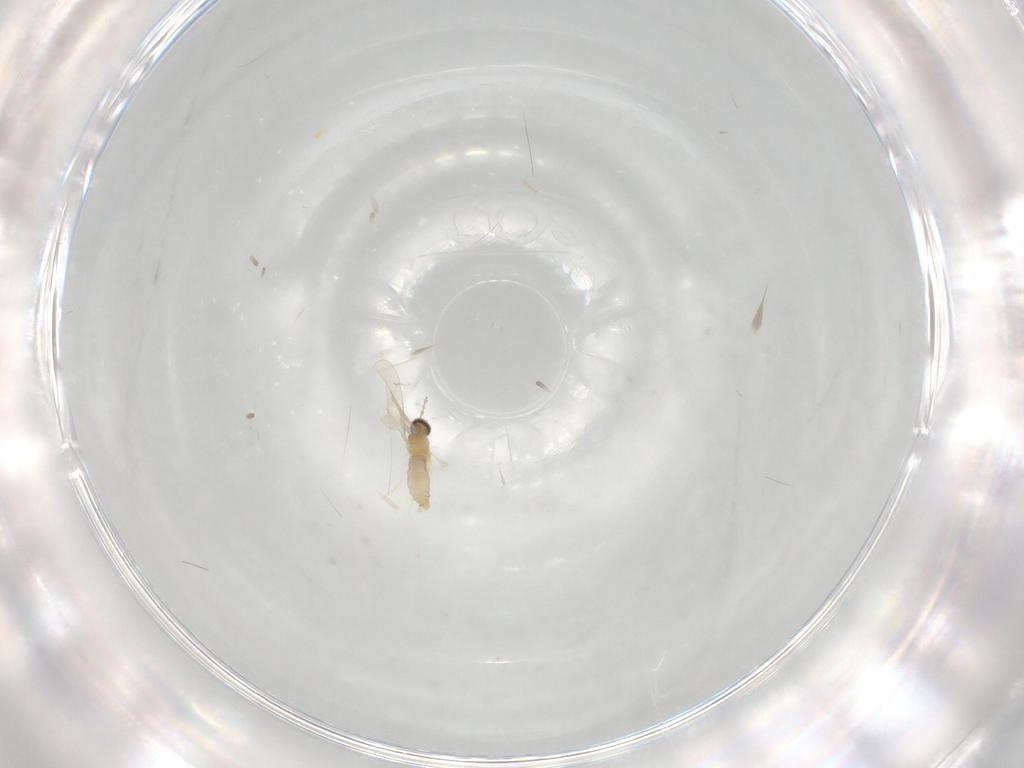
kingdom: Animalia
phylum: Arthropoda
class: Insecta
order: Diptera
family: Cecidomyiidae
